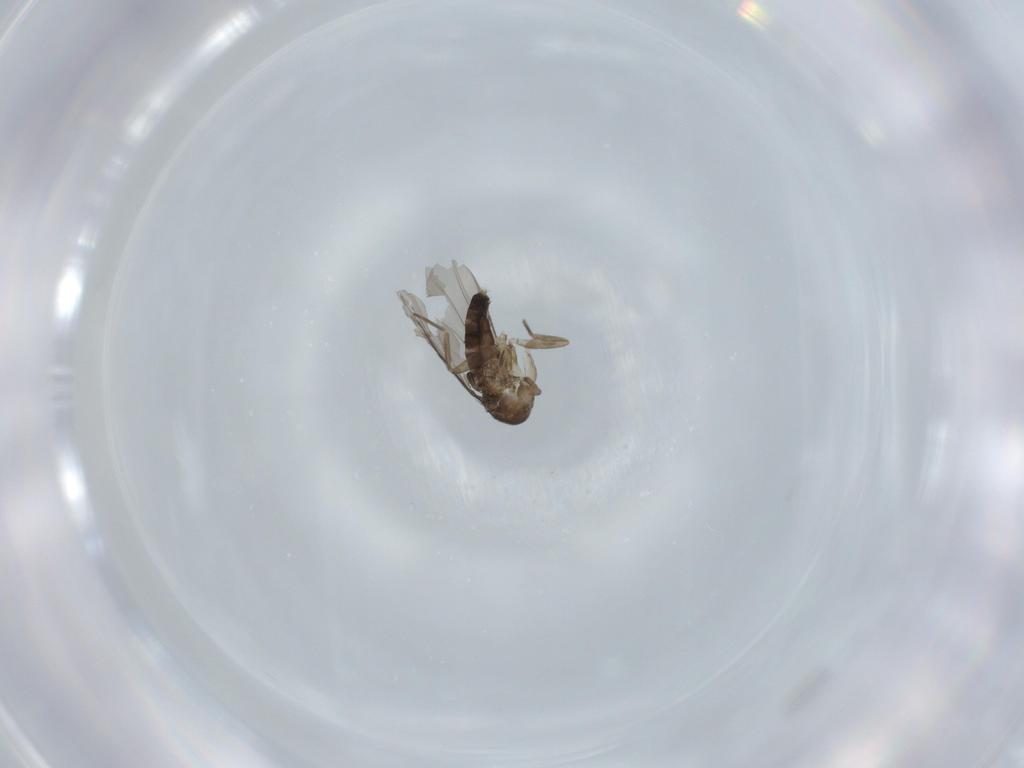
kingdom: Animalia
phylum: Arthropoda
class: Insecta
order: Diptera
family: Phoridae
